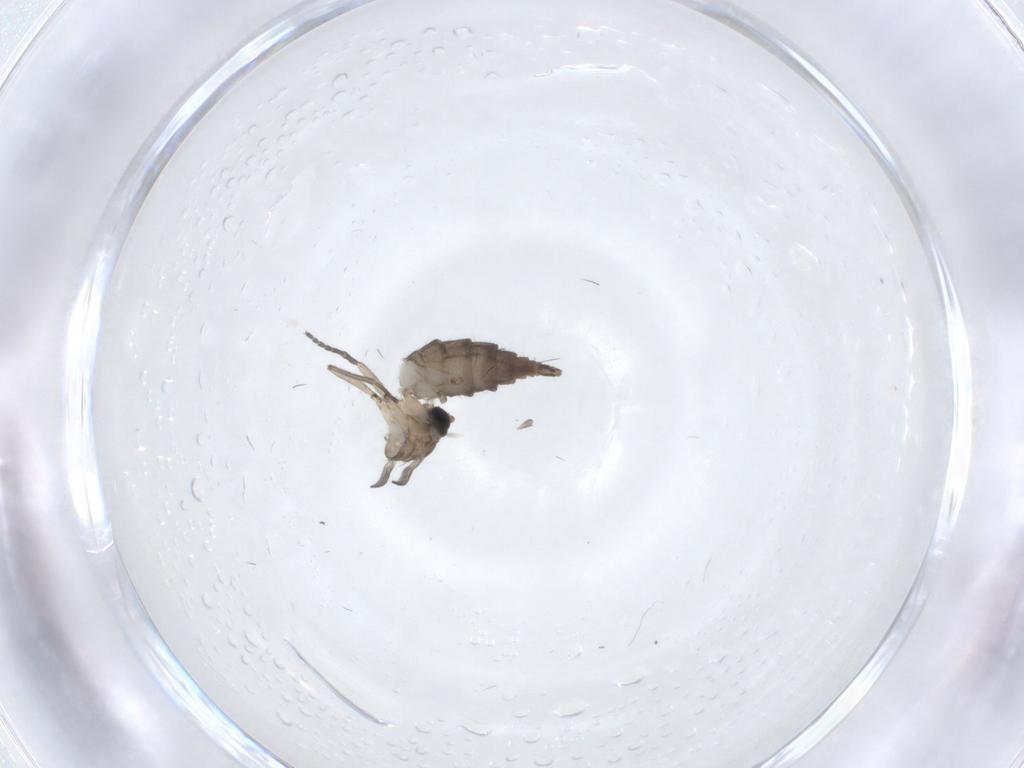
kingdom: Animalia
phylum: Arthropoda
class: Insecta
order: Diptera
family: Sciaridae
